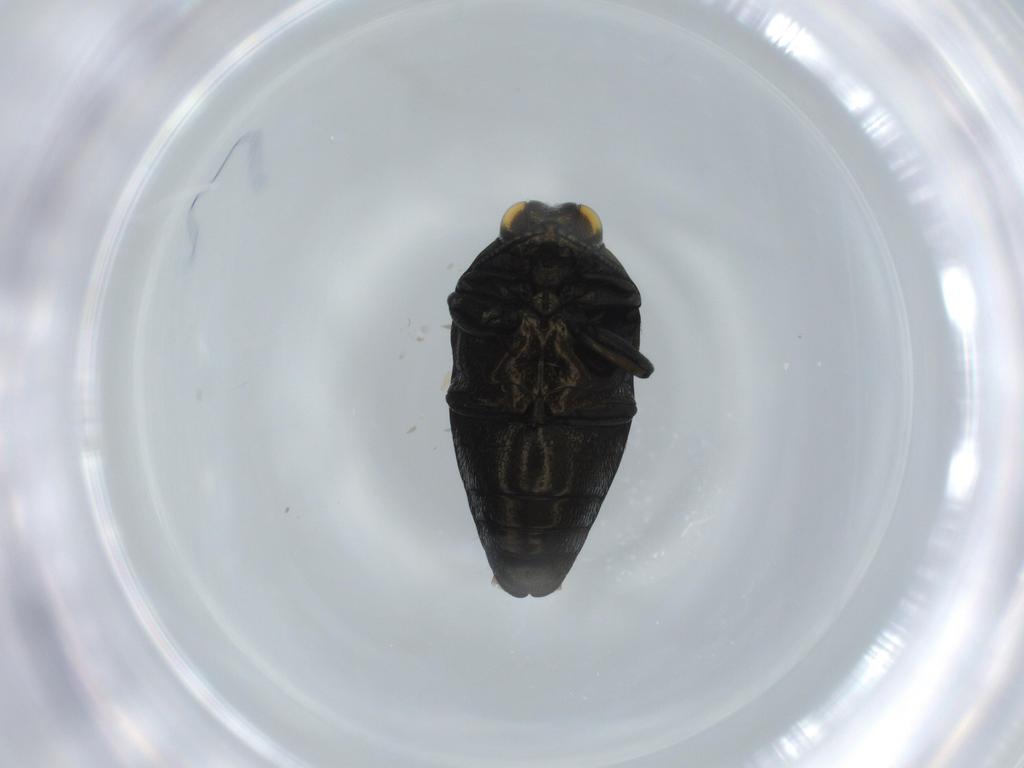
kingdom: Animalia
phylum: Arthropoda
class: Insecta
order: Coleoptera
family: Buprestidae
